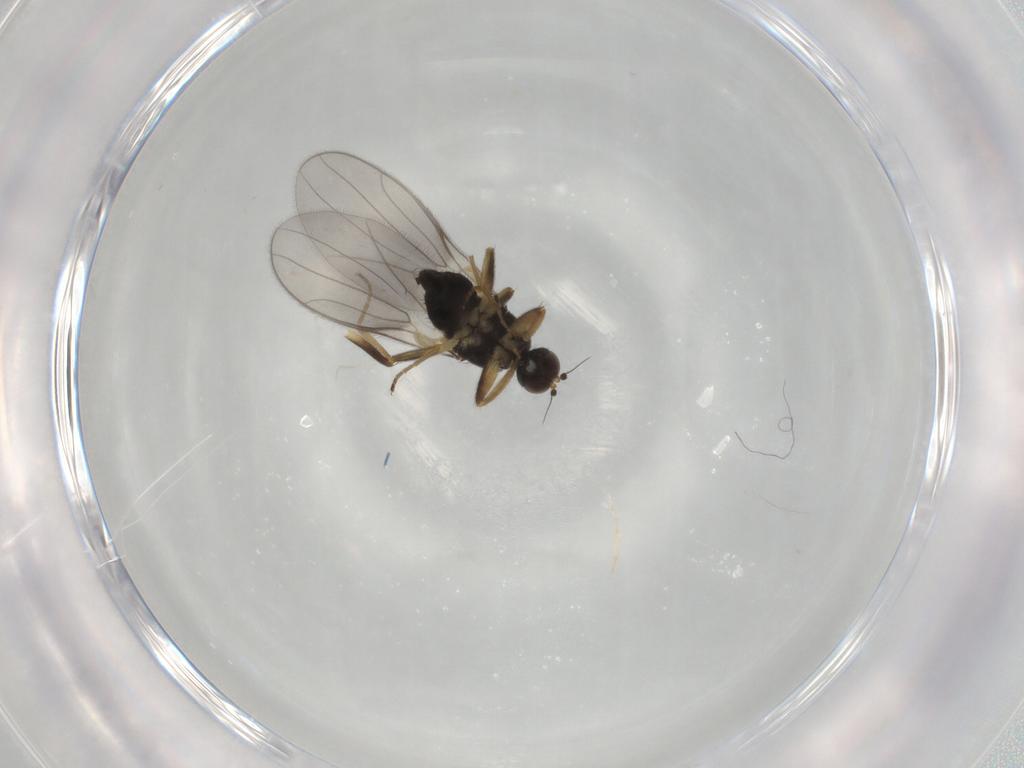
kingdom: Animalia
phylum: Arthropoda
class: Insecta
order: Diptera
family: Hybotidae
